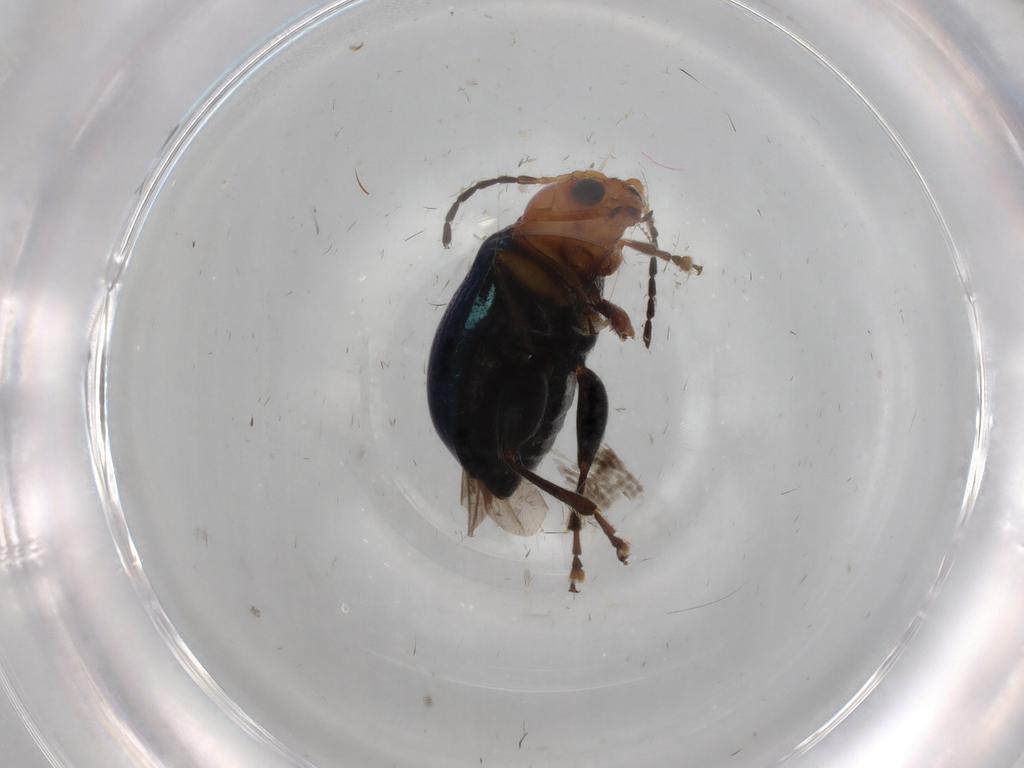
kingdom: Animalia
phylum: Arthropoda
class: Insecta
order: Coleoptera
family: Chrysomelidae
